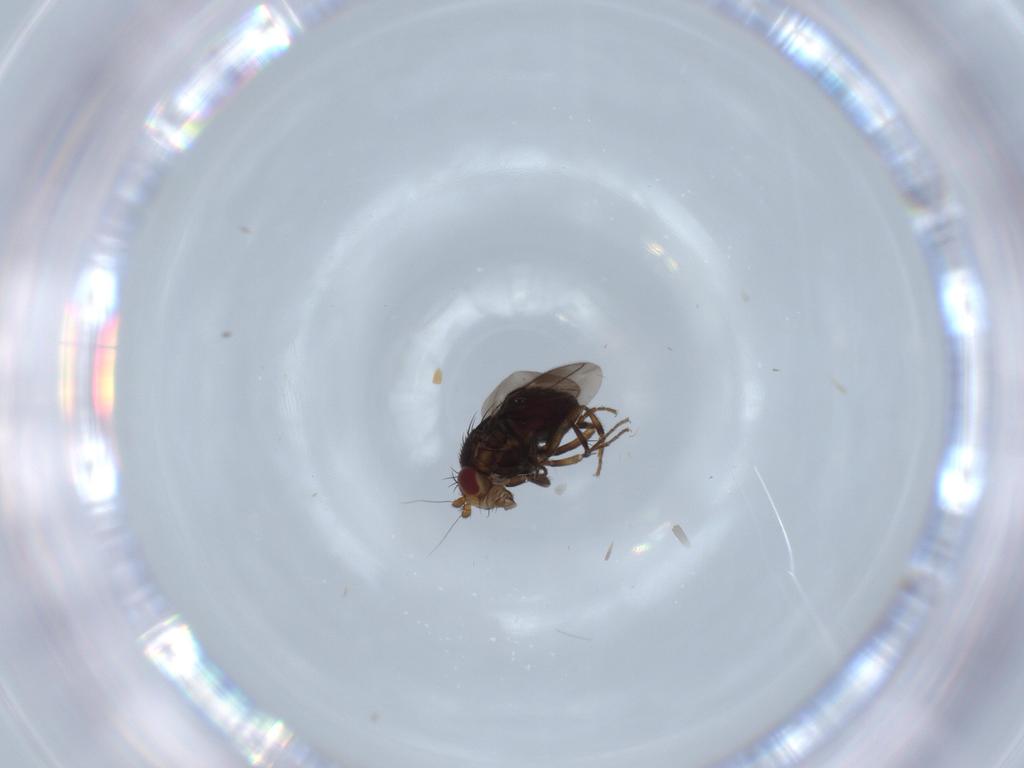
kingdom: Animalia
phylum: Arthropoda
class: Insecta
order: Diptera
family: Sphaeroceridae
